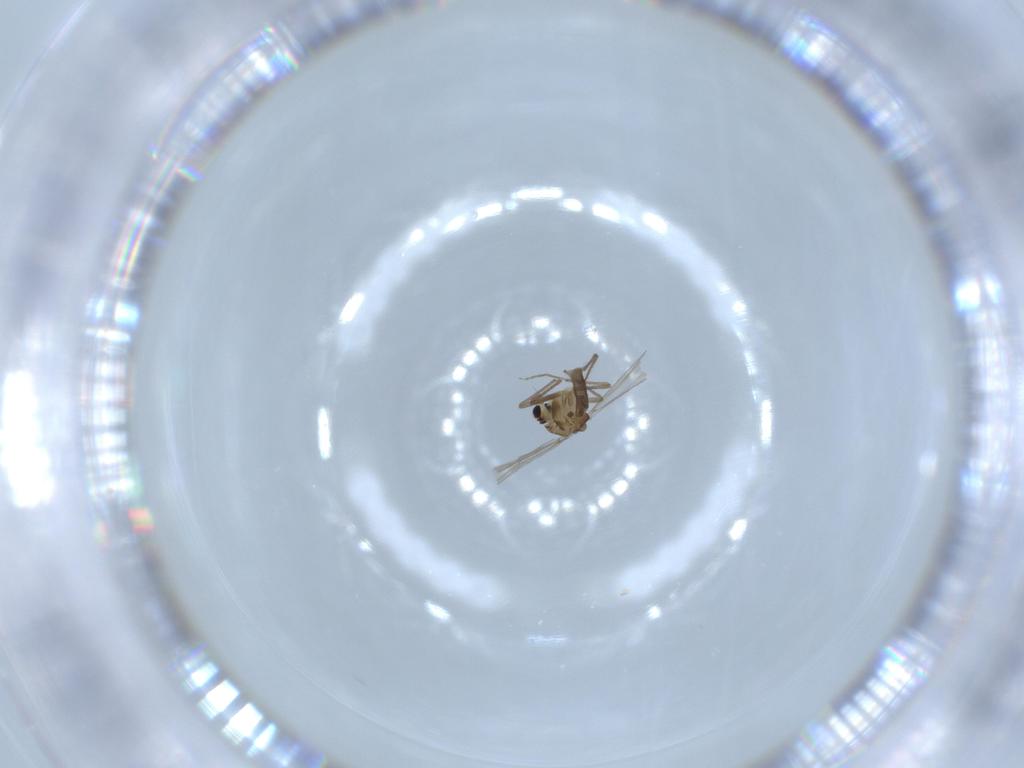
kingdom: Animalia
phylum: Arthropoda
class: Insecta
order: Diptera
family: Chironomidae
